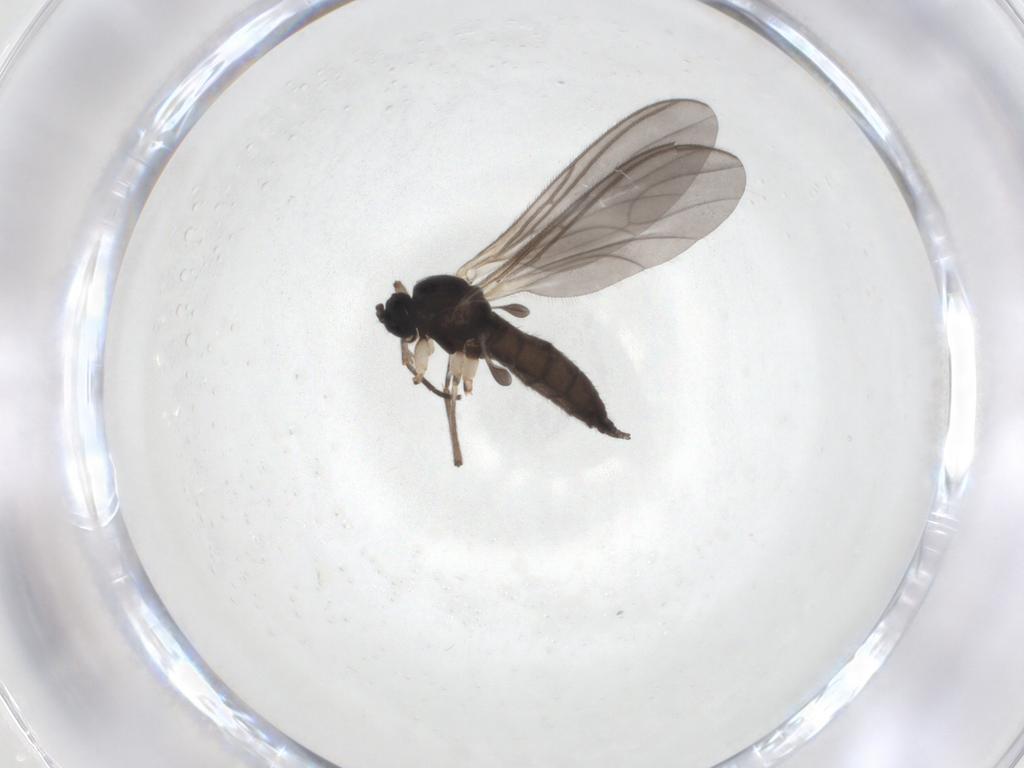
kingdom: Animalia
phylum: Arthropoda
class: Insecta
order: Diptera
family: Sciaridae
